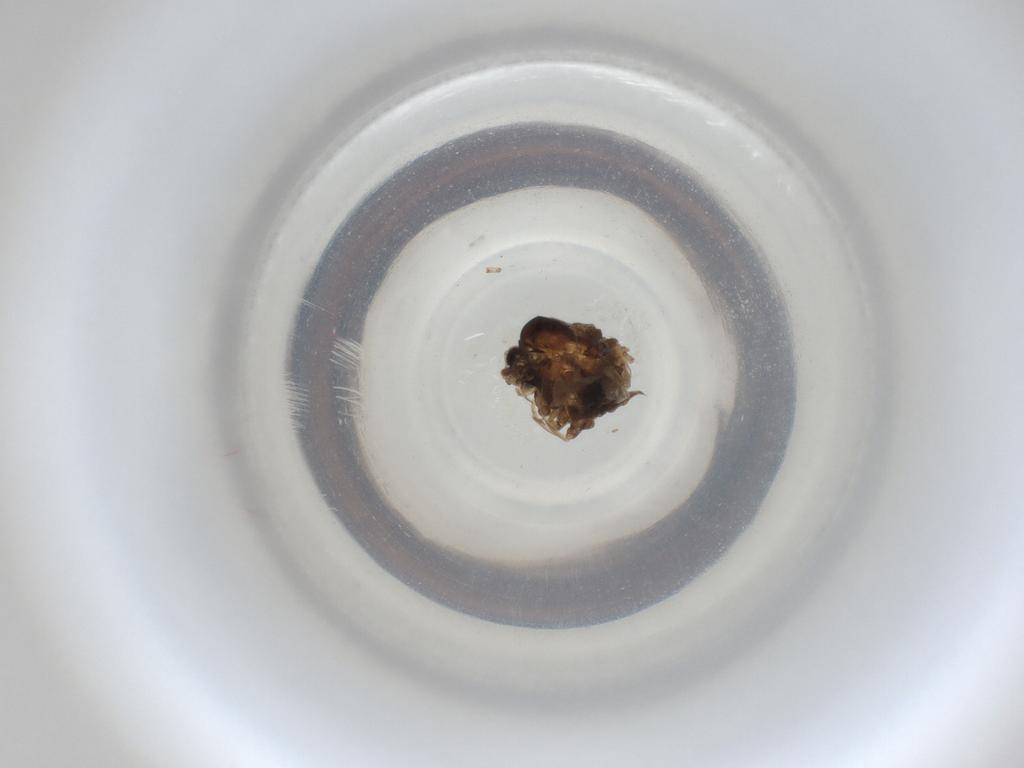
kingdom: Animalia
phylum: Arthropoda
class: Insecta
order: Diptera
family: Cecidomyiidae
